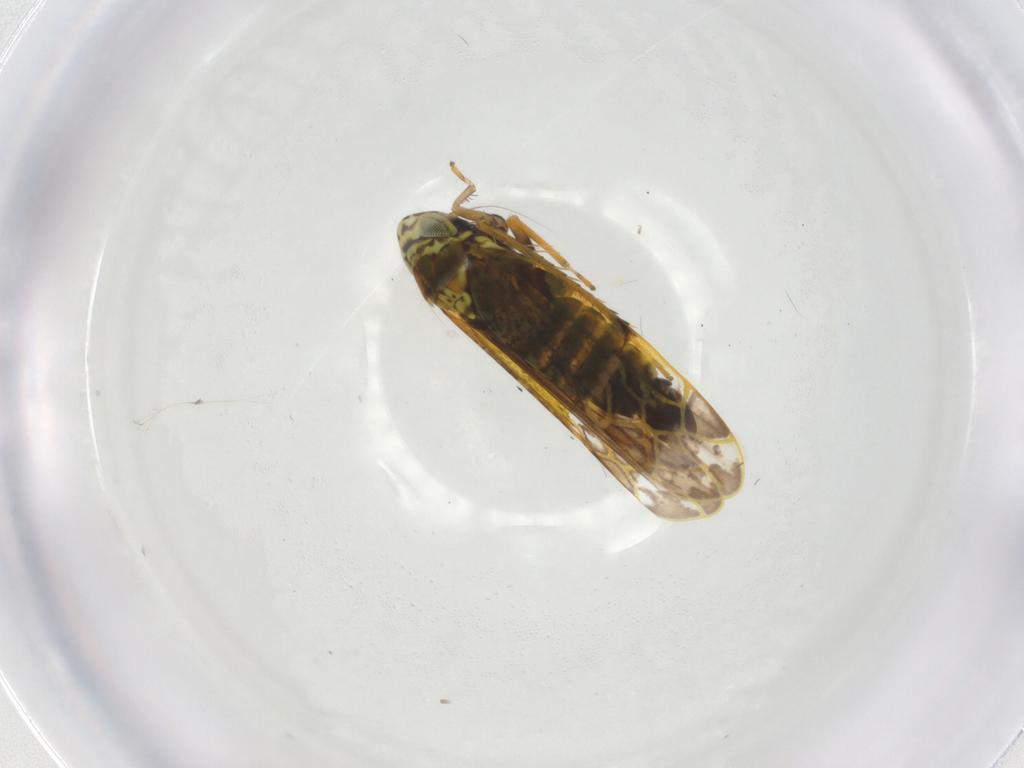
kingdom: Animalia
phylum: Arthropoda
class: Insecta
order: Hemiptera
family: Cicadellidae
